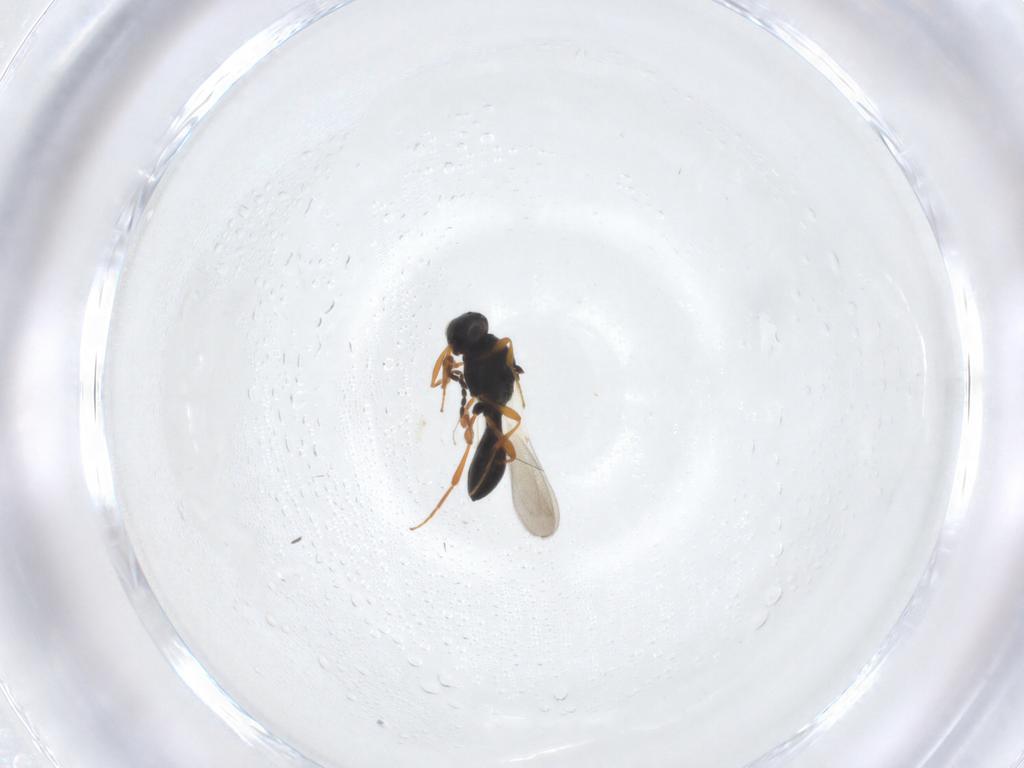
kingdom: Animalia
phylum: Arthropoda
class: Insecta
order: Hymenoptera
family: Platygastridae
